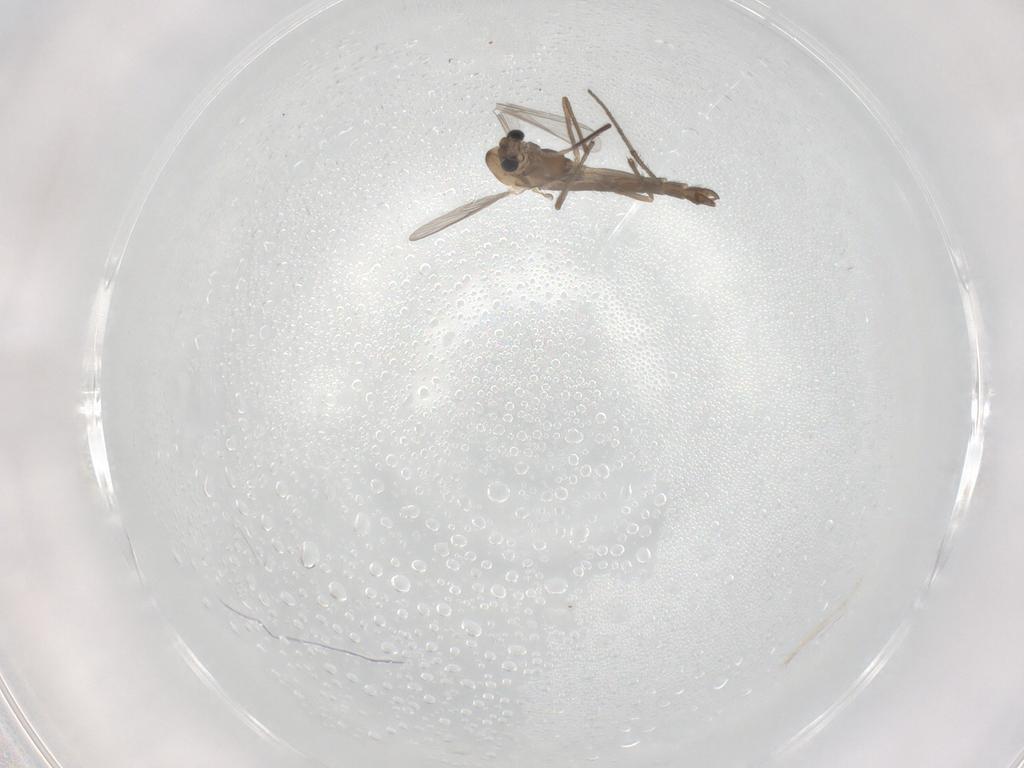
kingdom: Animalia
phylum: Arthropoda
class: Insecta
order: Diptera
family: Chironomidae
